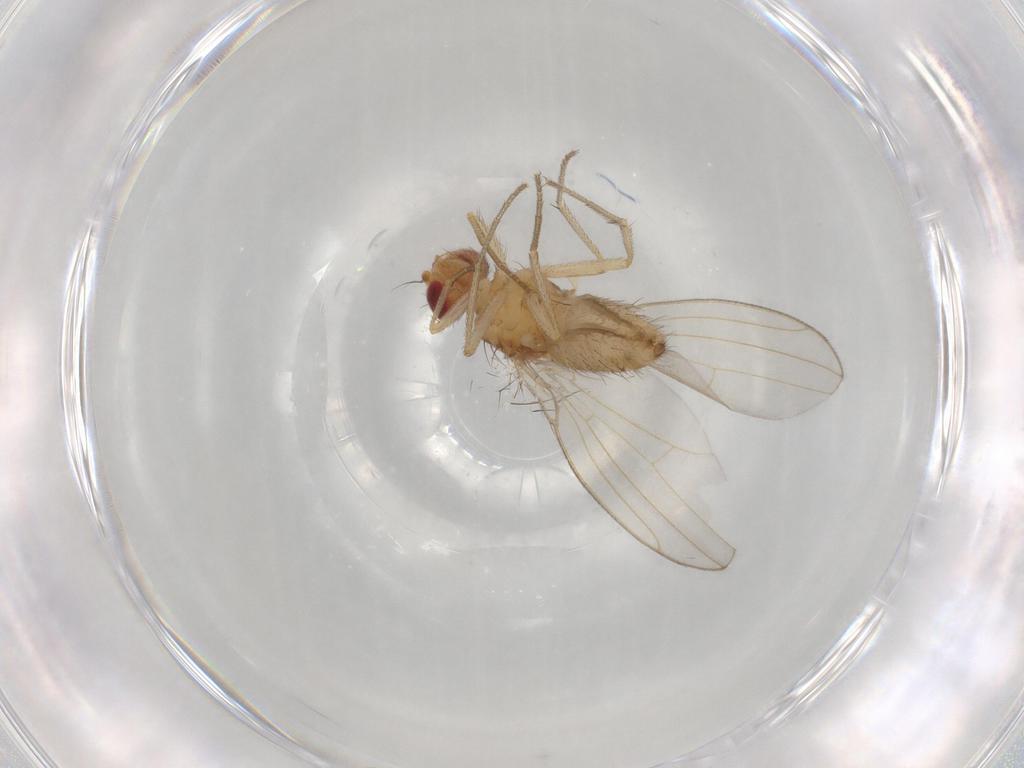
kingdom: Animalia
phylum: Arthropoda
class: Insecta
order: Diptera
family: Drosophilidae
